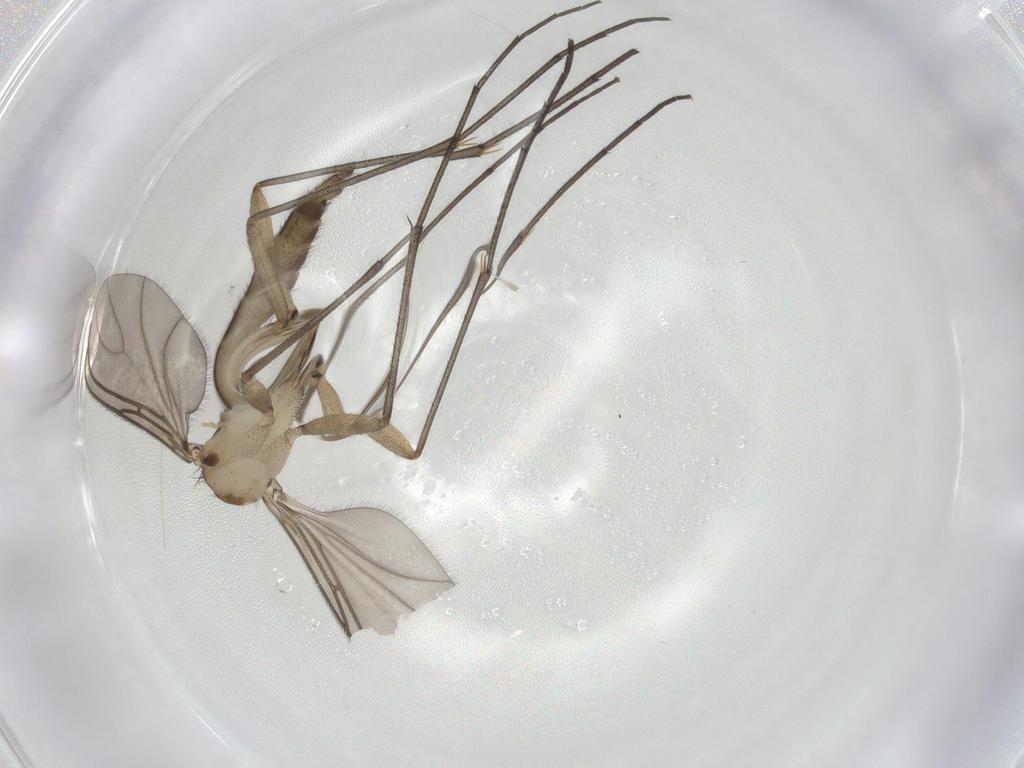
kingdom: Animalia
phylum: Arthropoda
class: Insecta
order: Diptera
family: Sciaridae
